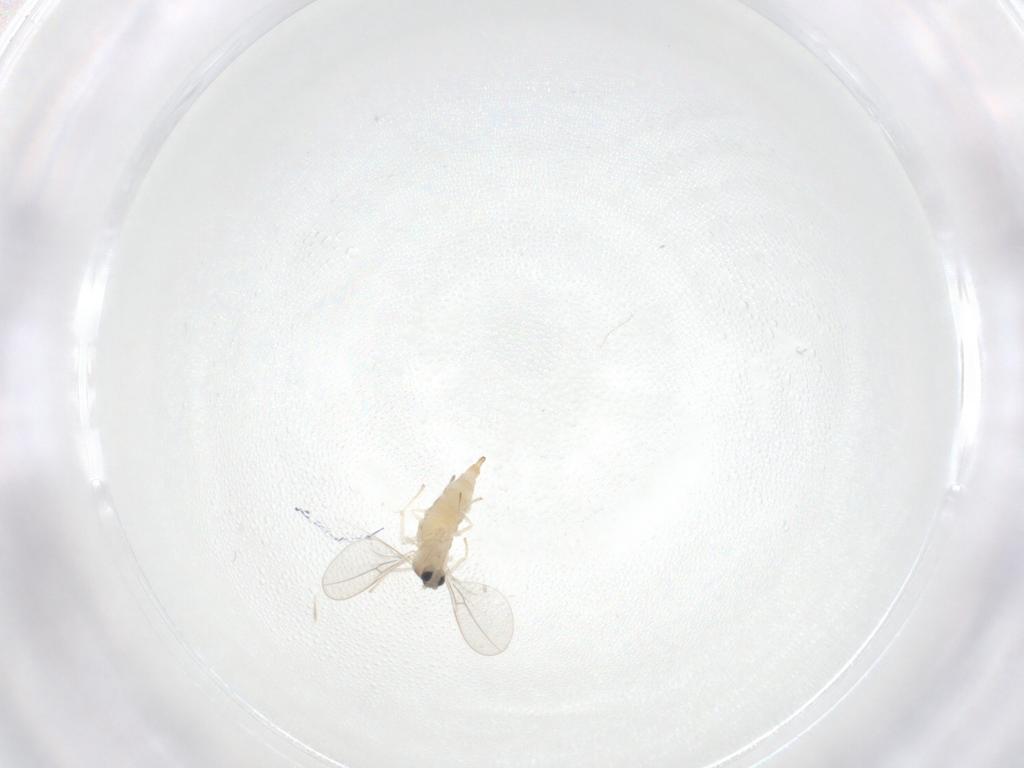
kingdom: Animalia
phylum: Arthropoda
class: Insecta
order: Diptera
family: Cecidomyiidae
